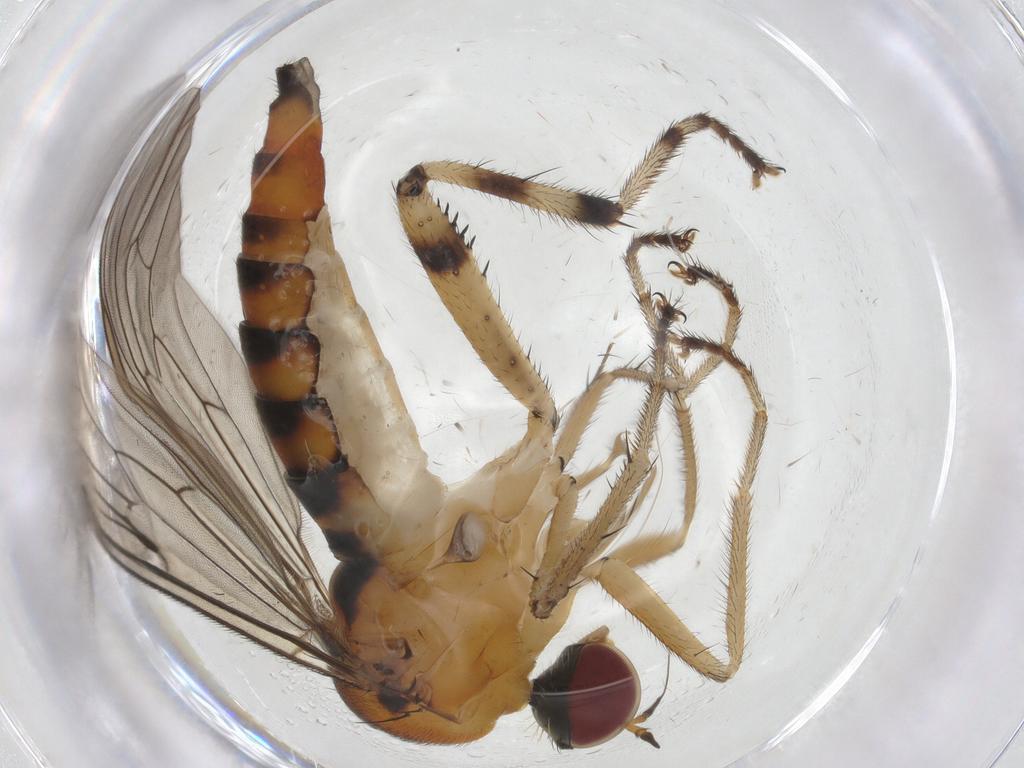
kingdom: Animalia
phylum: Arthropoda
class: Insecta
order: Diptera
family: Hybotidae
